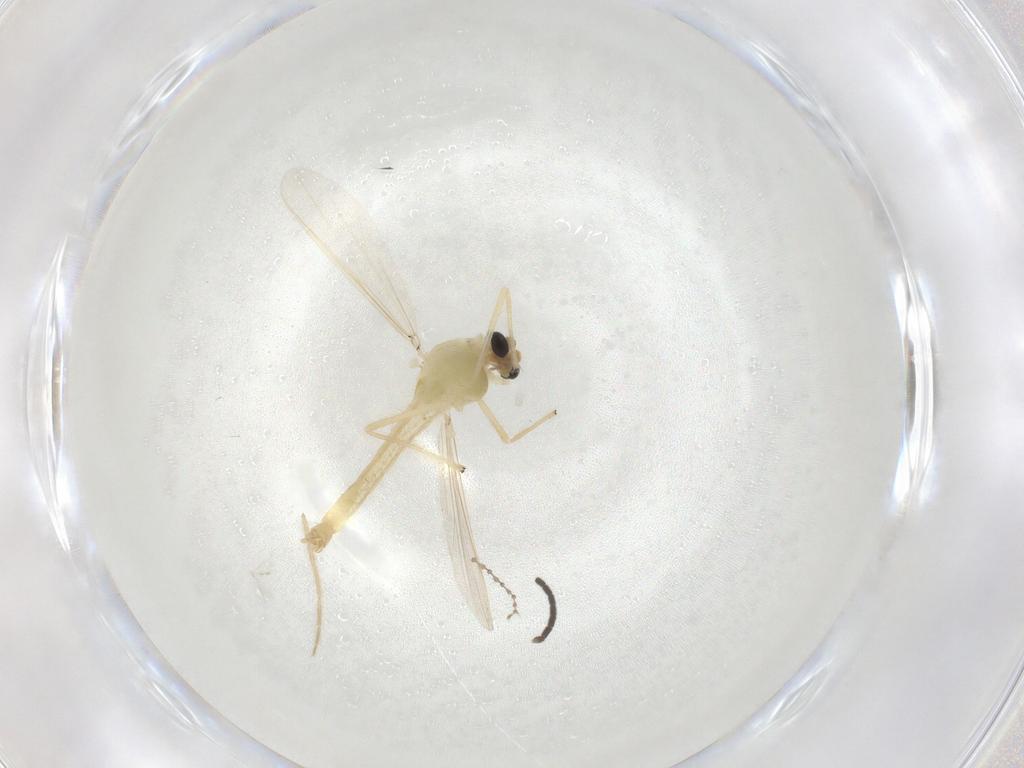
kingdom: Animalia
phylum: Arthropoda
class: Insecta
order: Diptera
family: Chironomidae
